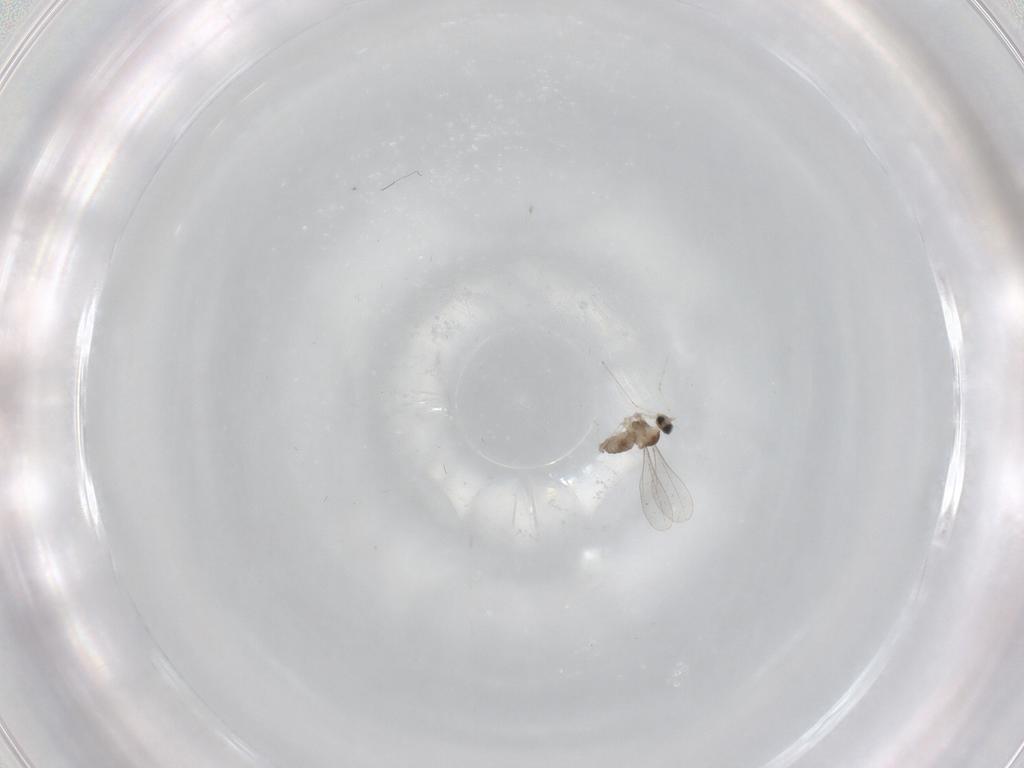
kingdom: Animalia
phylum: Arthropoda
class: Insecta
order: Diptera
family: Cecidomyiidae
